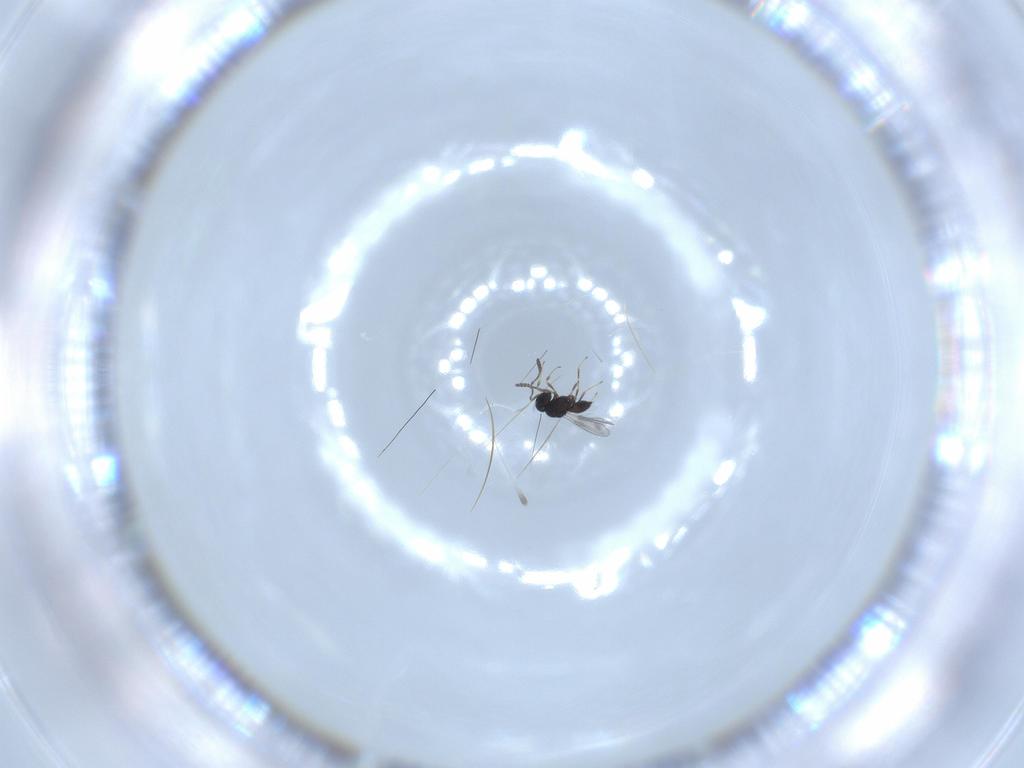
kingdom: Animalia
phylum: Arthropoda
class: Insecta
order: Hymenoptera
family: Scelionidae
